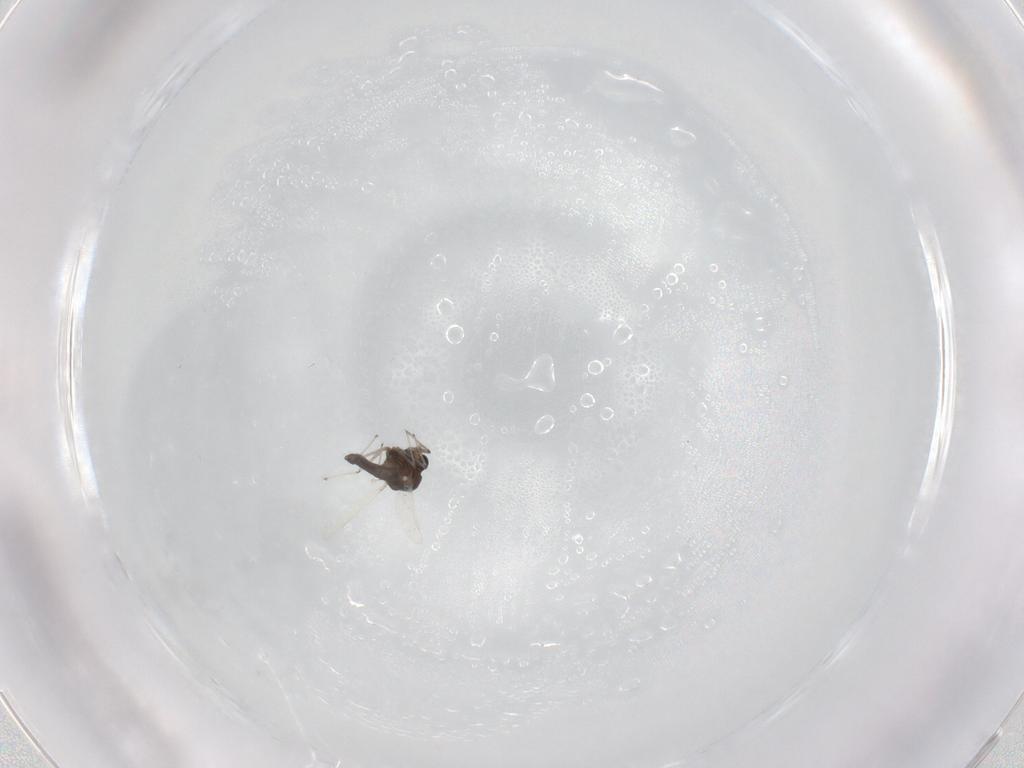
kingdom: Animalia
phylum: Arthropoda
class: Insecta
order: Diptera
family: Chironomidae
